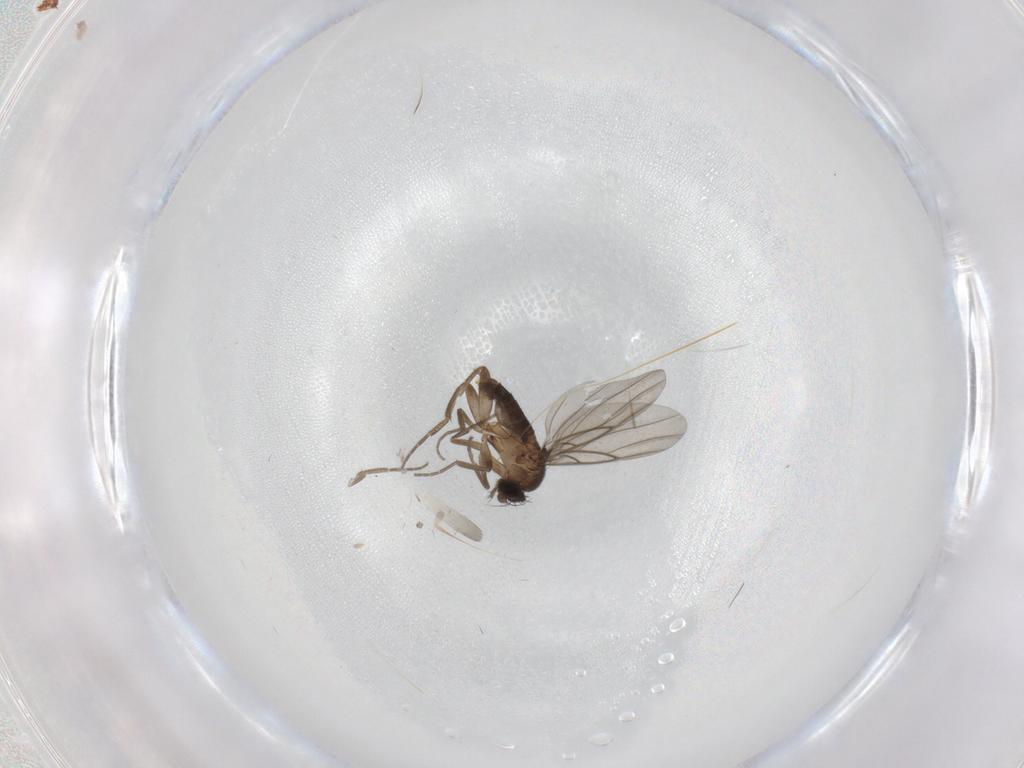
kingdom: Animalia
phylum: Arthropoda
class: Insecta
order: Diptera
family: Phoridae
